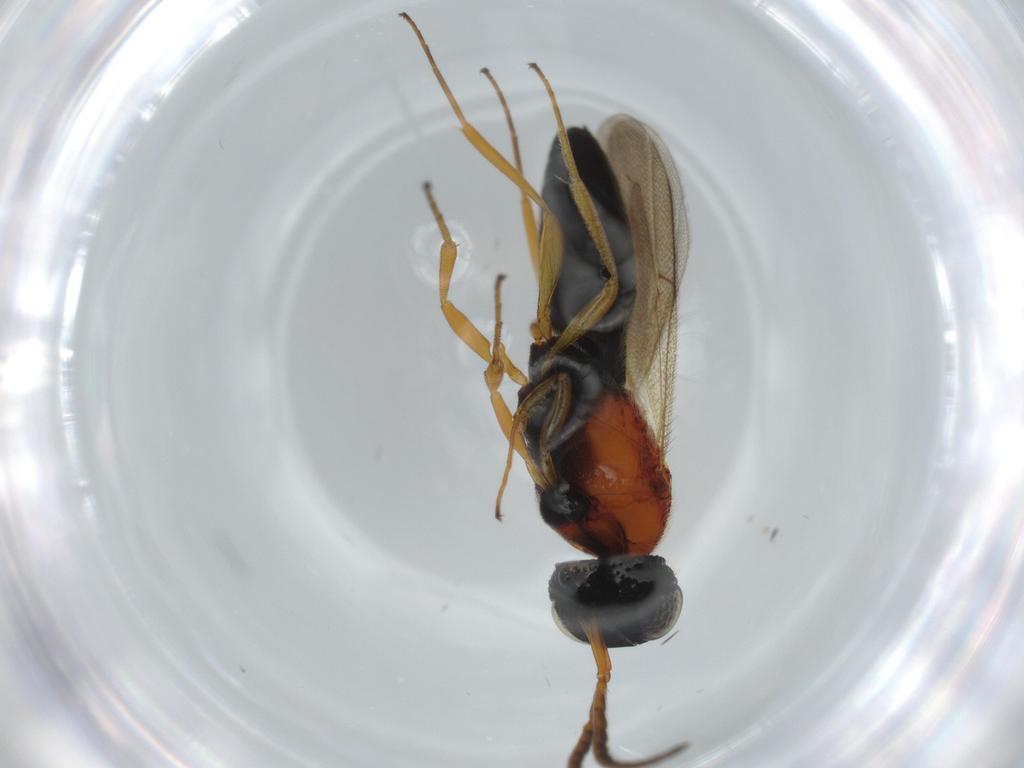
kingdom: Animalia
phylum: Arthropoda
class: Insecta
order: Hymenoptera
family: Scelionidae
